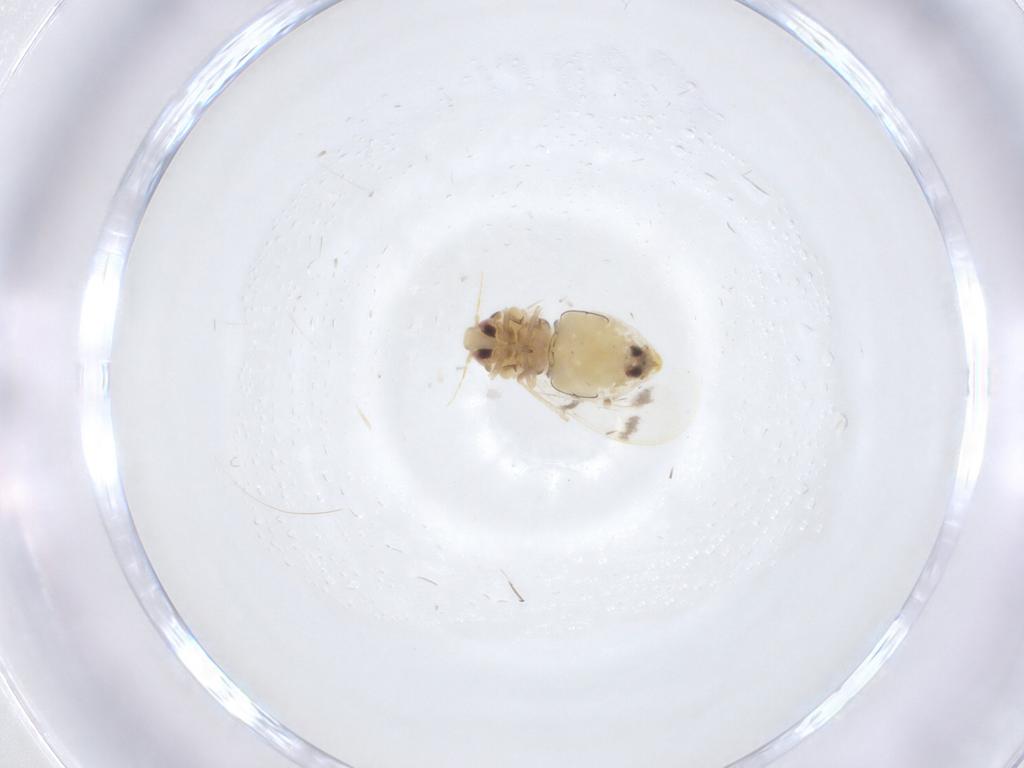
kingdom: Animalia
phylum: Arthropoda
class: Insecta
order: Hemiptera
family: Aleyrodidae
